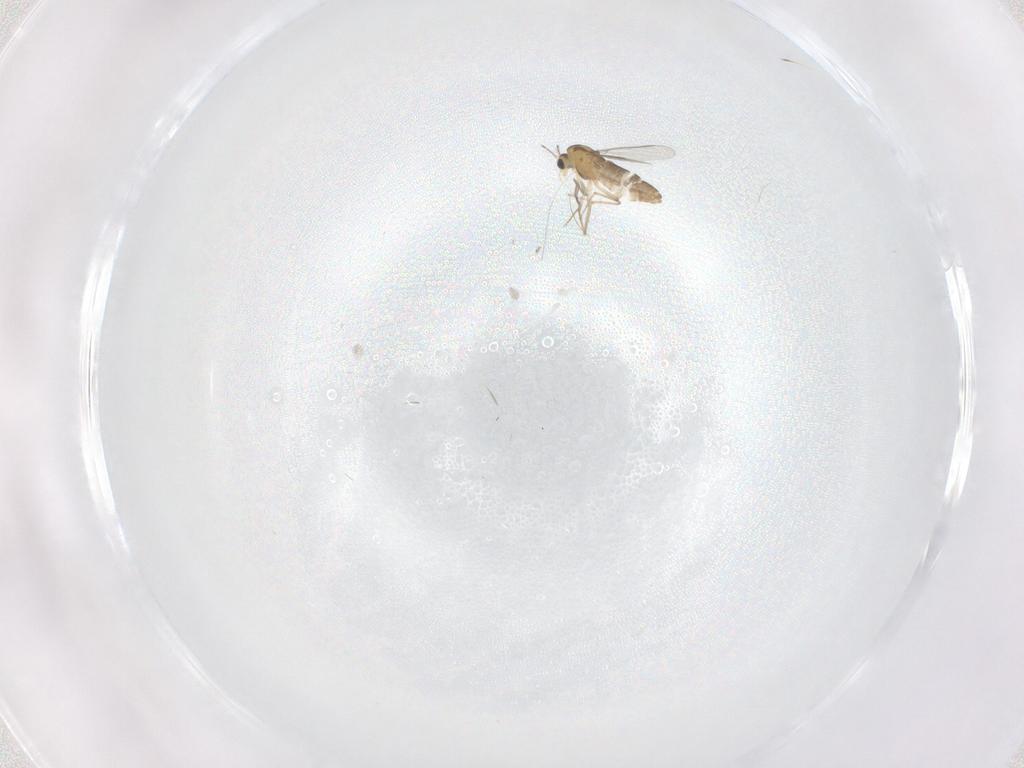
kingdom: Animalia
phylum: Arthropoda
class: Insecta
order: Diptera
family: Chironomidae
